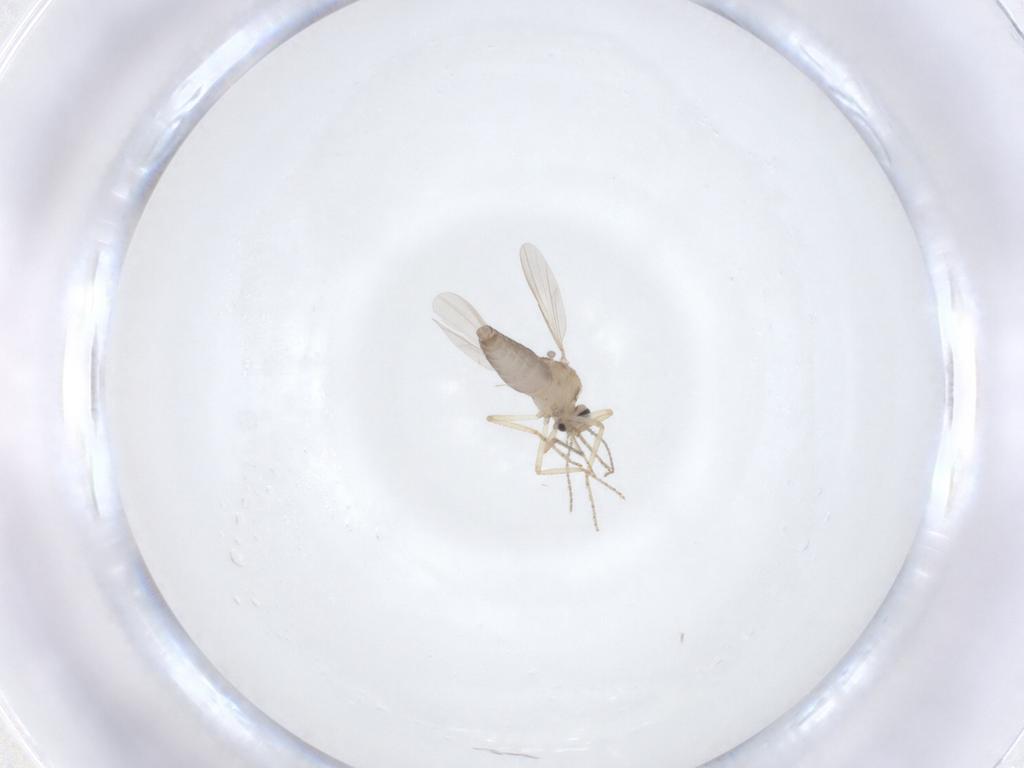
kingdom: Animalia
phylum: Arthropoda
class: Insecta
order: Diptera
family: Ceratopogonidae
